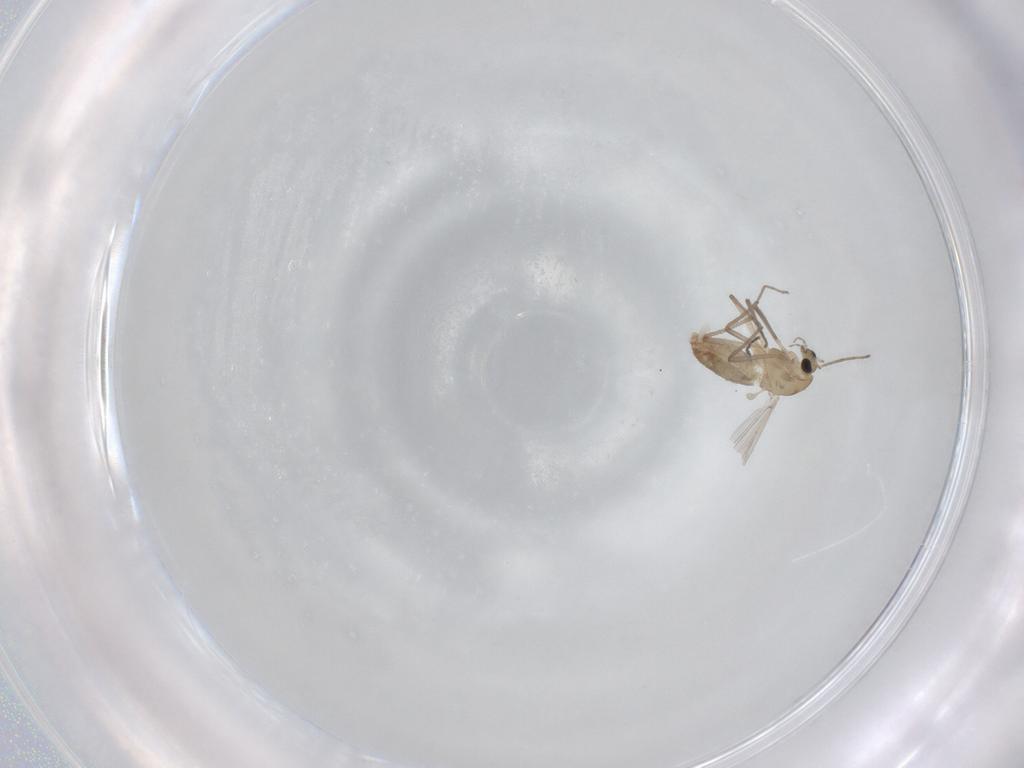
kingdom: Animalia
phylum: Arthropoda
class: Insecta
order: Diptera
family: Chironomidae
